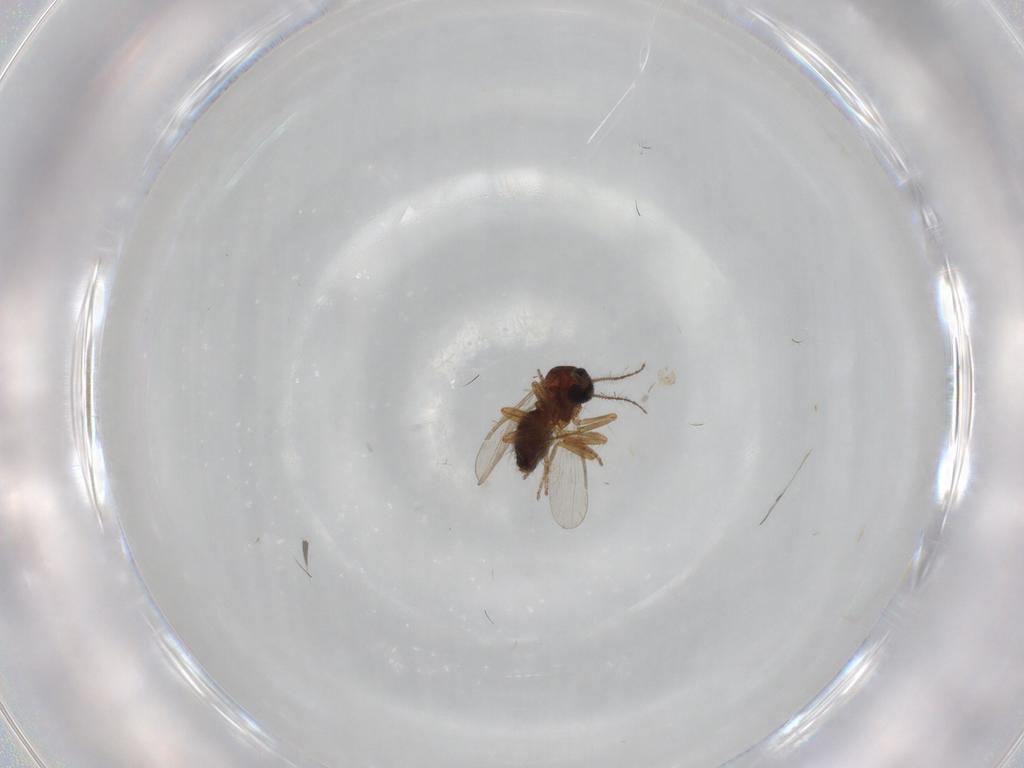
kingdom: Animalia
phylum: Arthropoda
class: Insecta
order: Diptera
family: Ceratopogonidae
